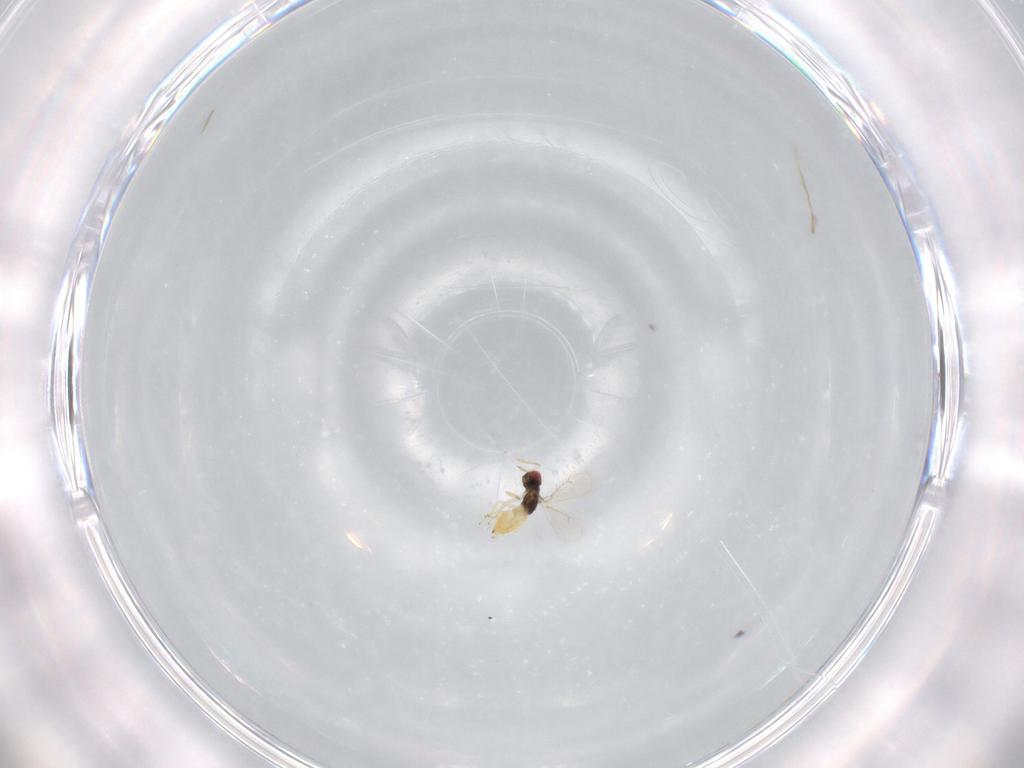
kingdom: Animalia
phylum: Arthropoda
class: Insecta
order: Hymenoptera
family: Eulophidae
